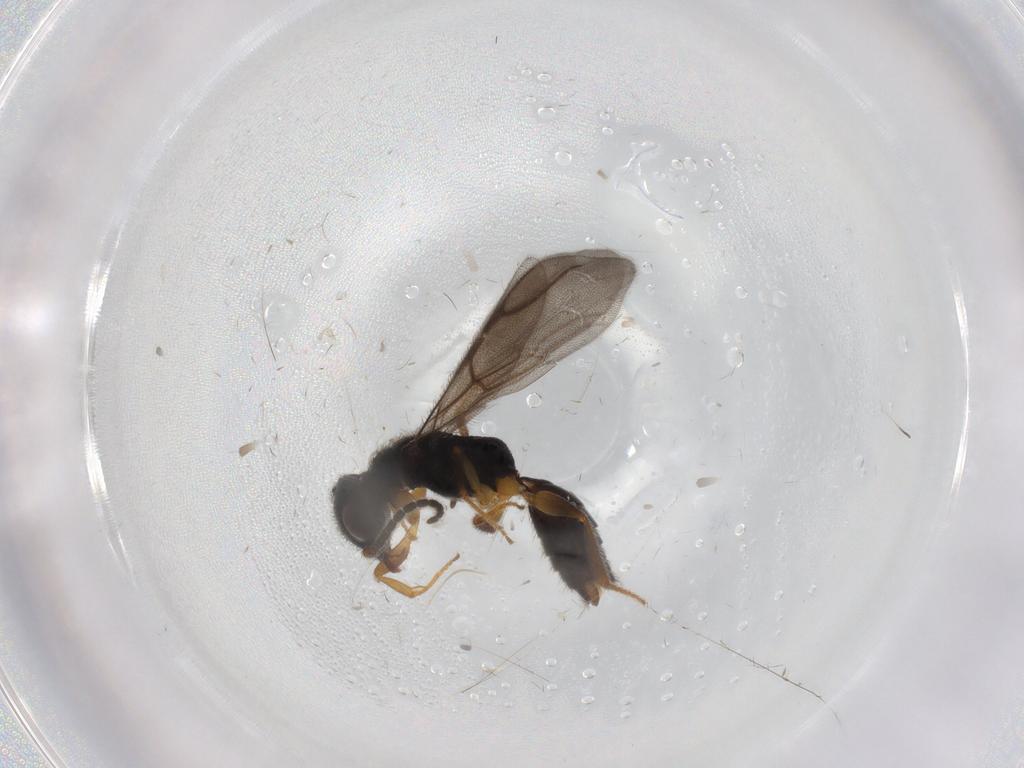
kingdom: Animalia
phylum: Arthropoda
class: Insecta
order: Hymenoptera
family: Bethylidae
